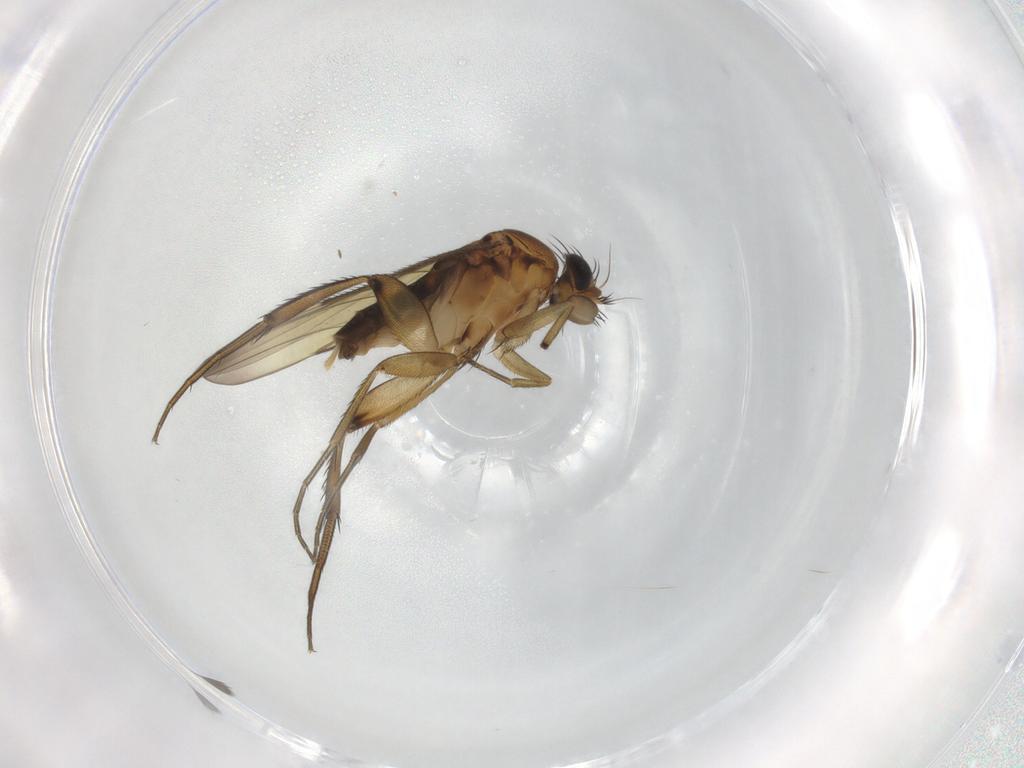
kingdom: Animalia
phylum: Arthropoda
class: Insecta
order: Diptera
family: Phoridae
